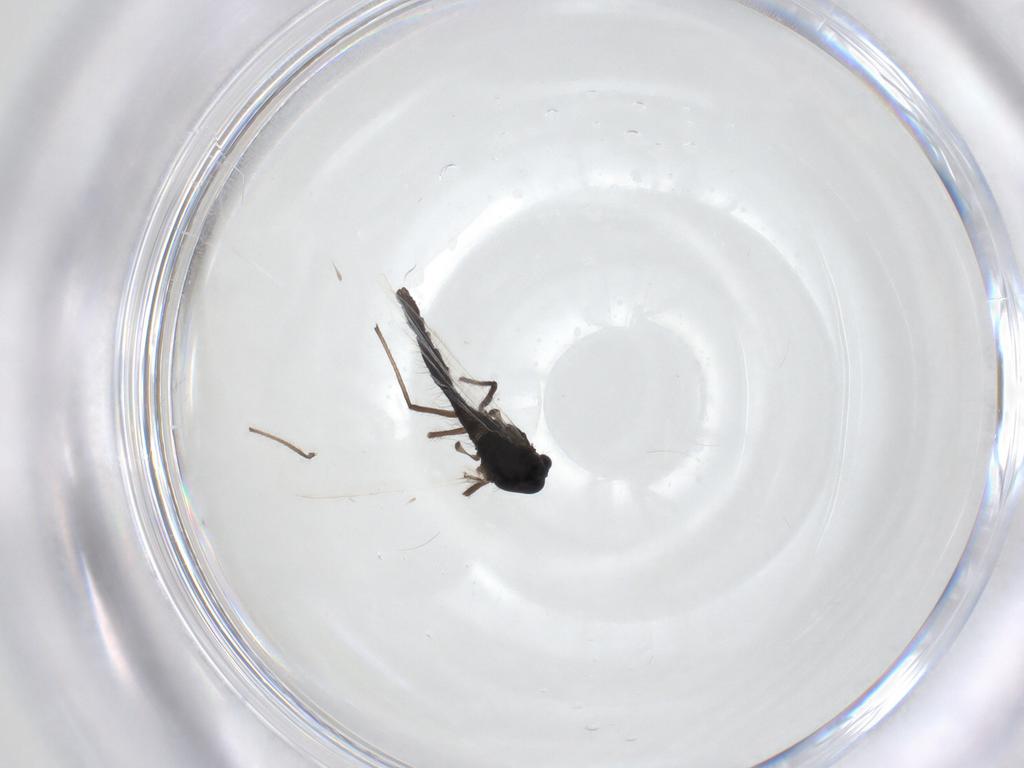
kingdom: Animalia
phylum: Arthropoda
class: Insecta
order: Diptera
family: Chironomidae
